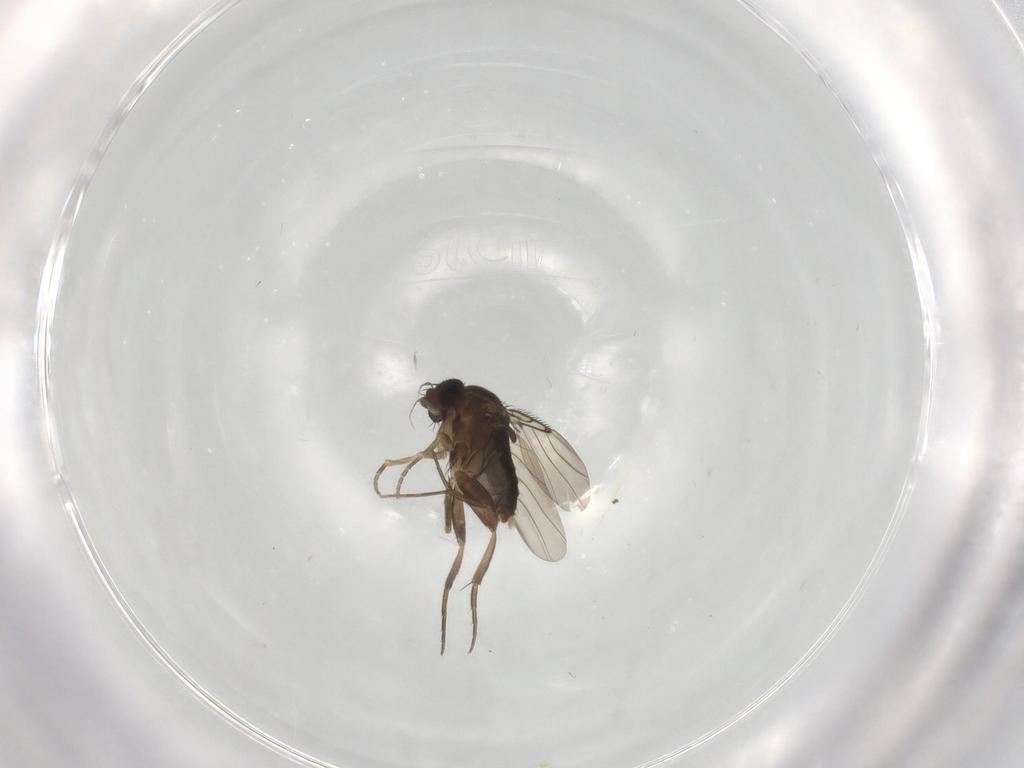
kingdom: Animalia
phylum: Arthropoda
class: Insecta
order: Diptera
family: Phoridae
